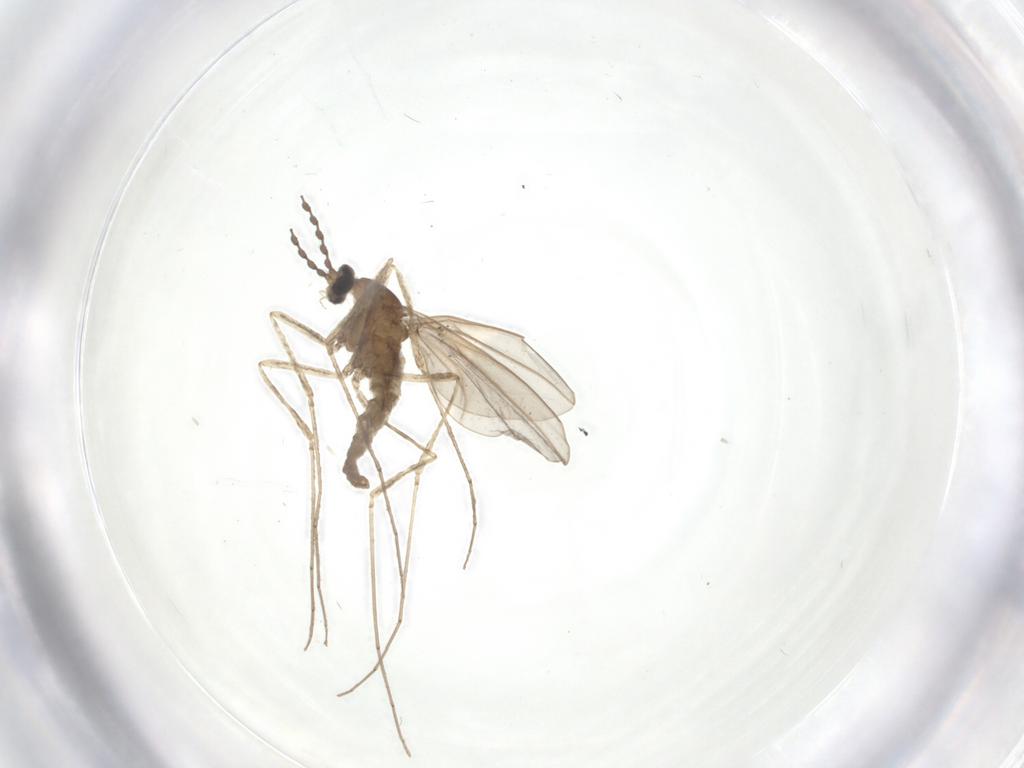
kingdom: Animalia
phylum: Arthropoda
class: Insecta
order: Diptera
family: Cecidomyiidae
